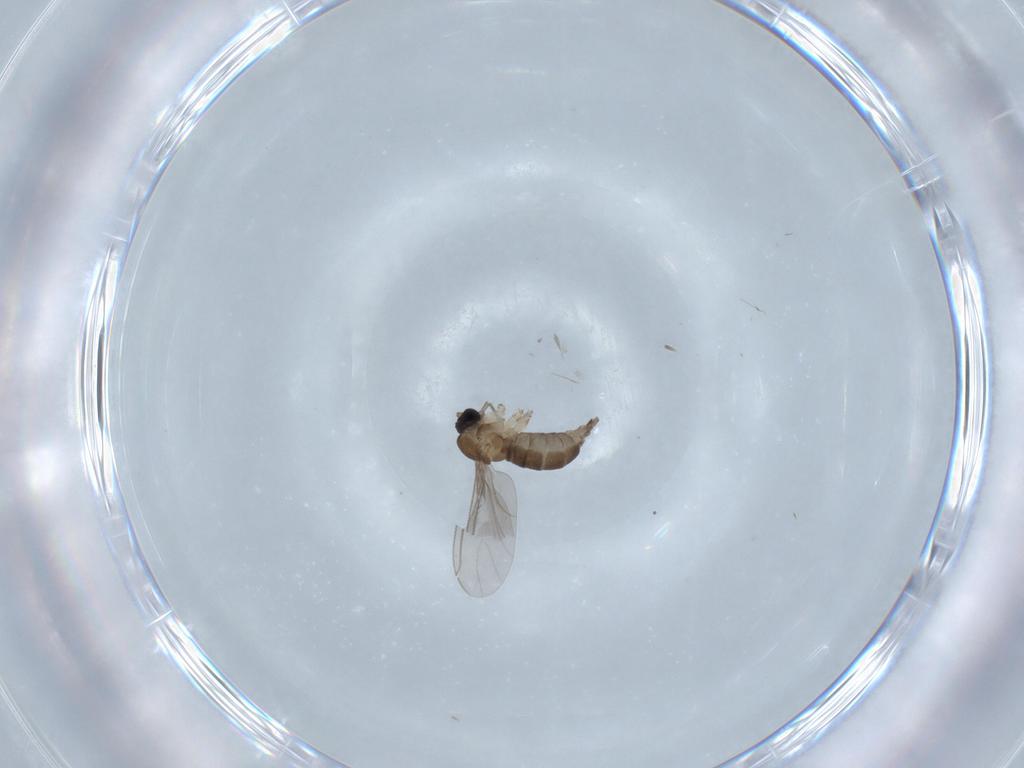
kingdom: Animalia
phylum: Arthropoda
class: Insecta
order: Diptera
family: Sciaridae
